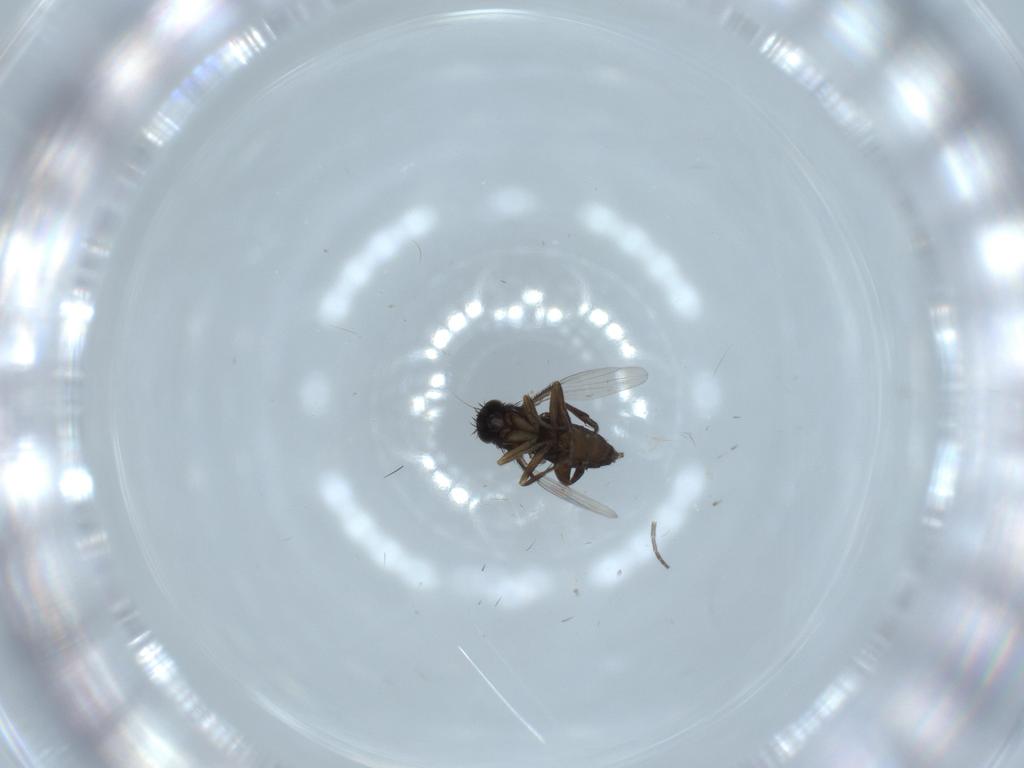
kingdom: Animalia
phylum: Arthropoda
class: Insecta
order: Diptera
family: Phoridae
